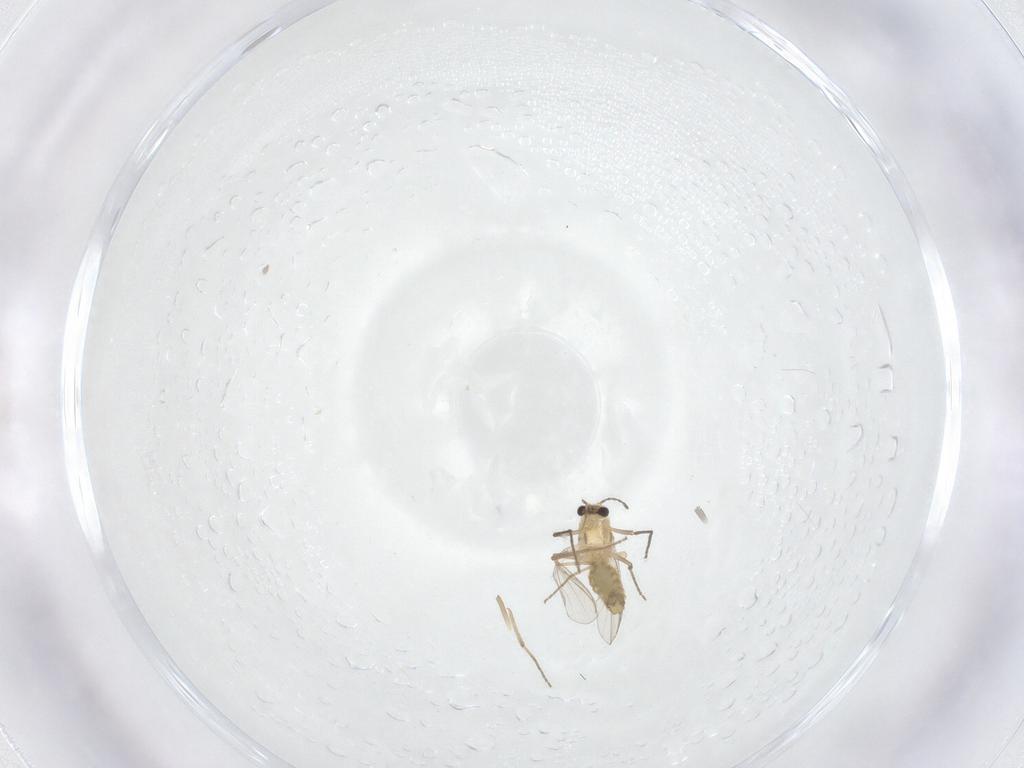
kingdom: Animalia
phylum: Arthropoda
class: Insecta
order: Diptera
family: Chironomidae
